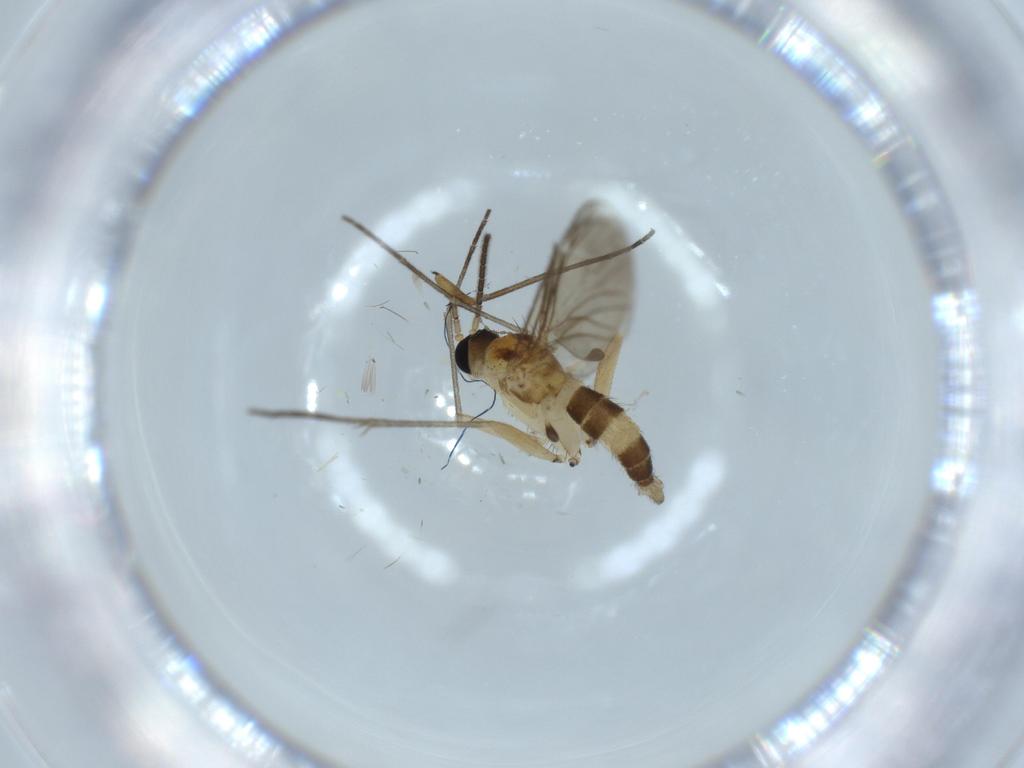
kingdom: Animalia
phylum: Arthropoda
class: Insecta
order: Diptera
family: Sciaridae
